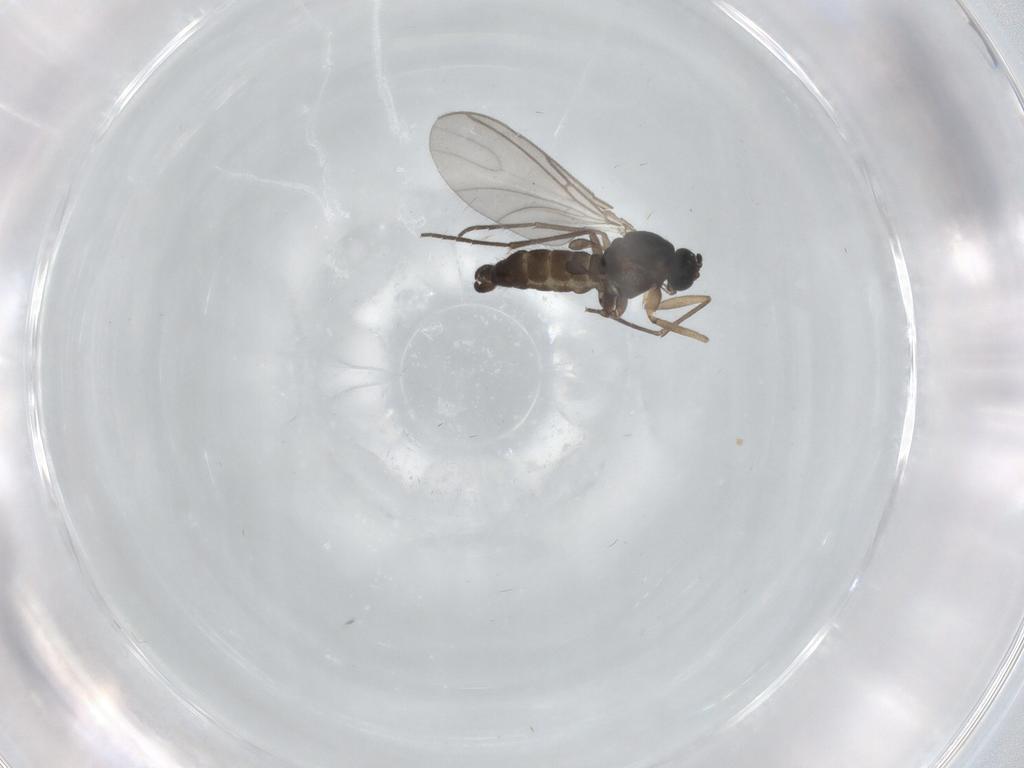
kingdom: Animalia
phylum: Arthropoda
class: Insecta
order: Diptera
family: Sciaridae
